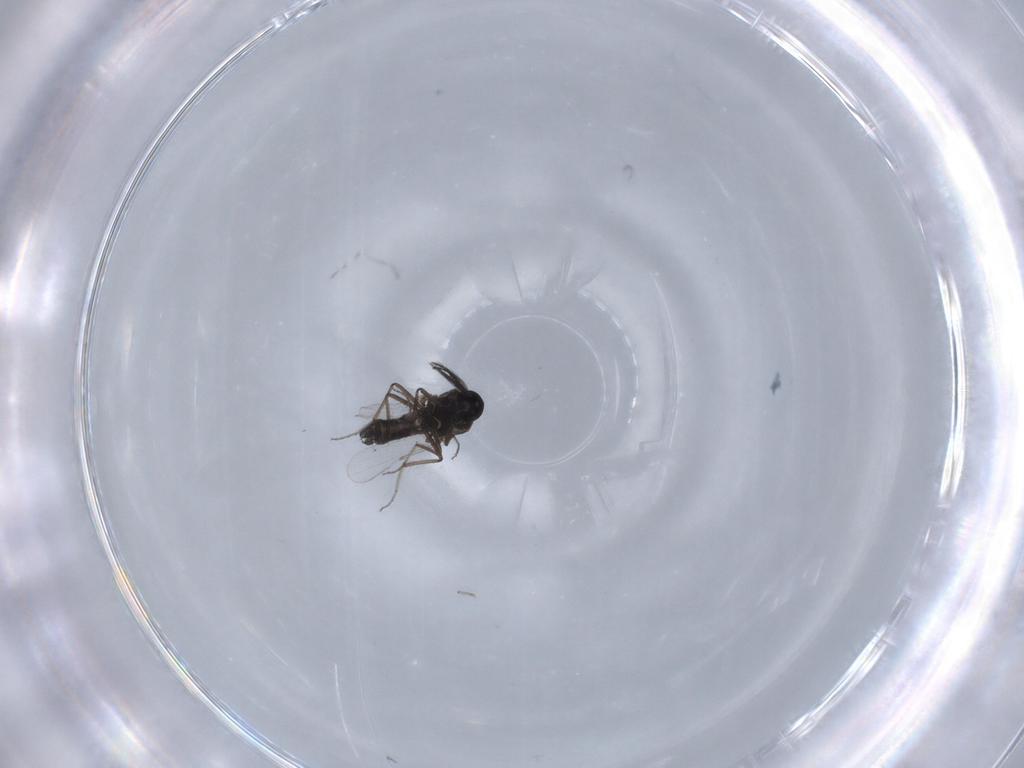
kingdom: Animalia
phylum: Arthropoda
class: Insecta
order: Diptera
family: Ceratopogonidae
